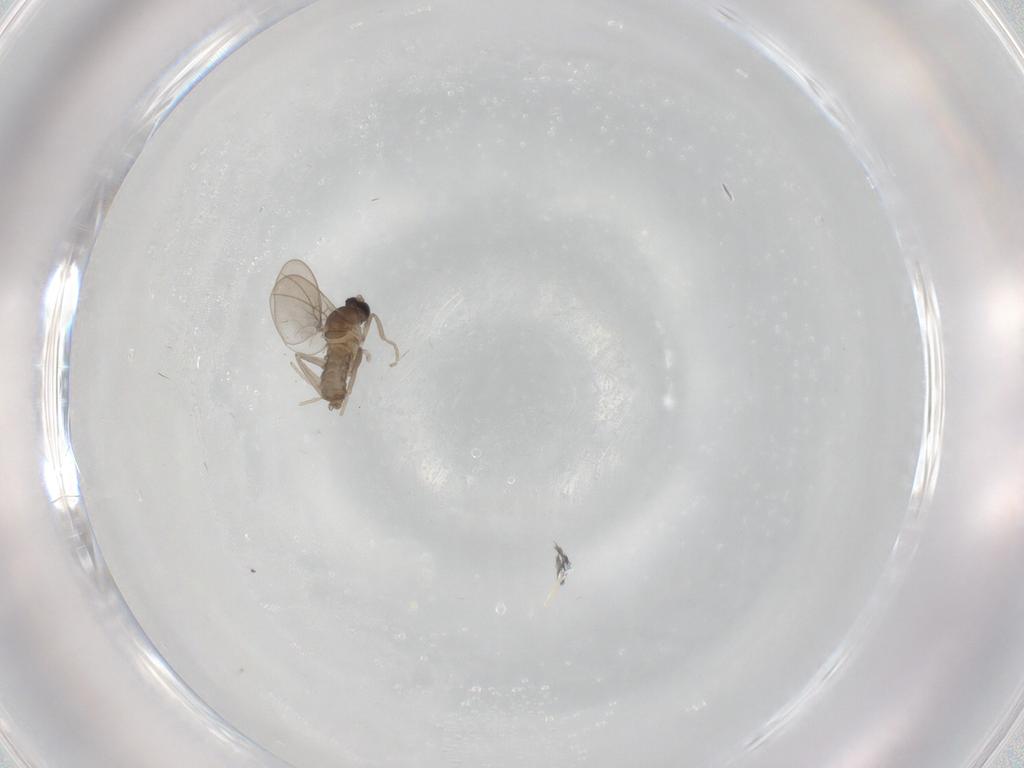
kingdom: Animalia
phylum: Arthropoda
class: Insecta
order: Diptera
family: Cecidomyiidae
